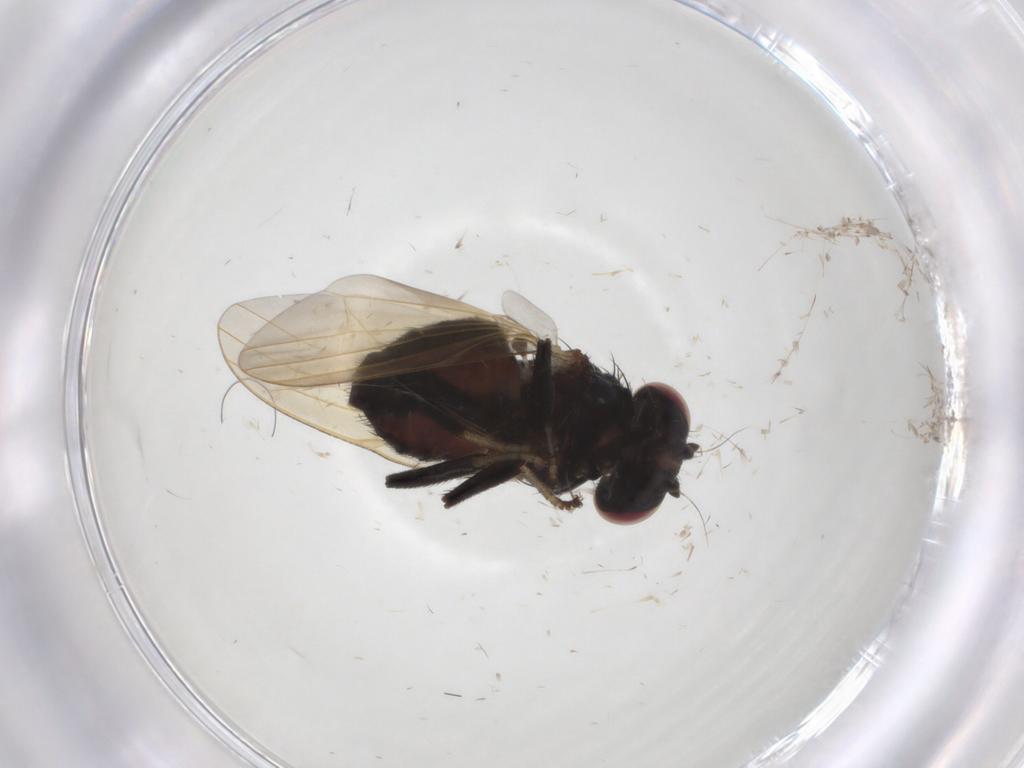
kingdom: Animalia
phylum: Arthropoda
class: Insecta
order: Diptera
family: Lonchaeidae
